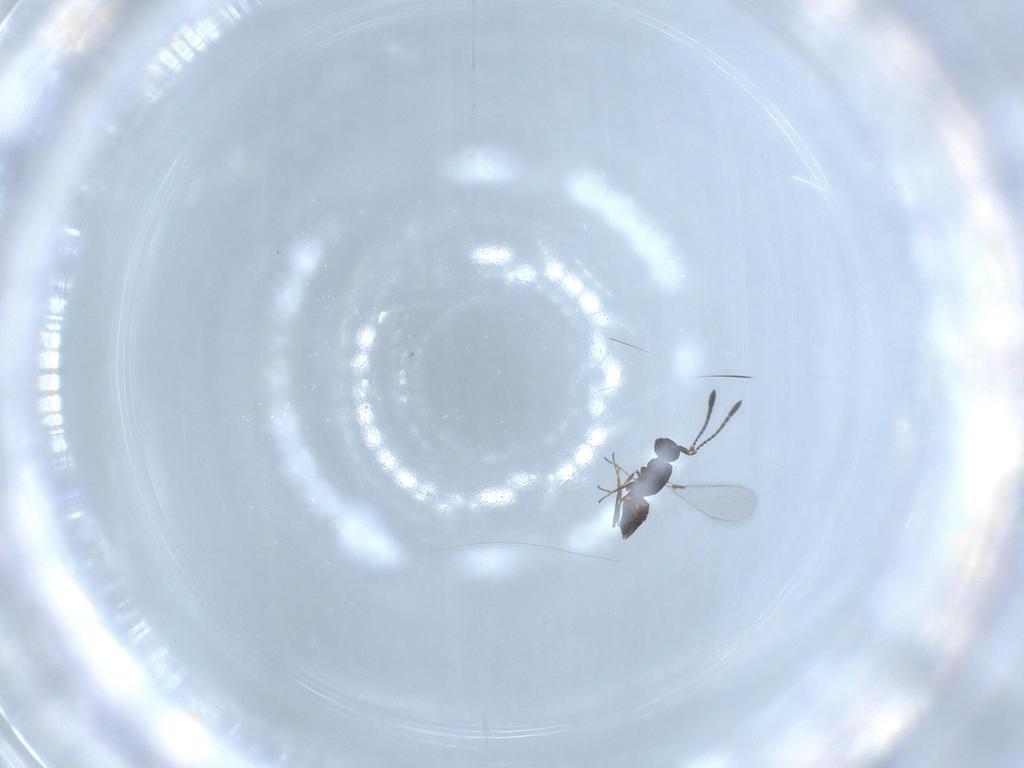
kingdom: Animalia
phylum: Arthropoda
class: Insecta
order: Hymenoptera
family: Mymaridae
